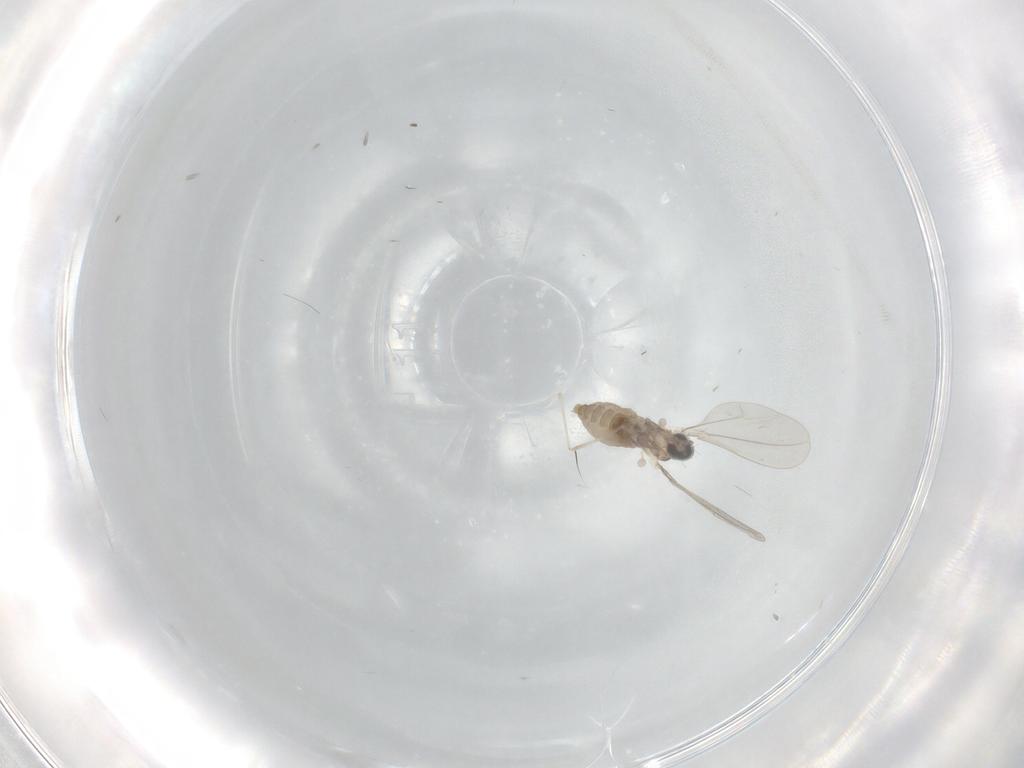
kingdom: Animalia
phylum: Arthropoda
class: Insecta
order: Diptera
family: Cecidomyiidae
